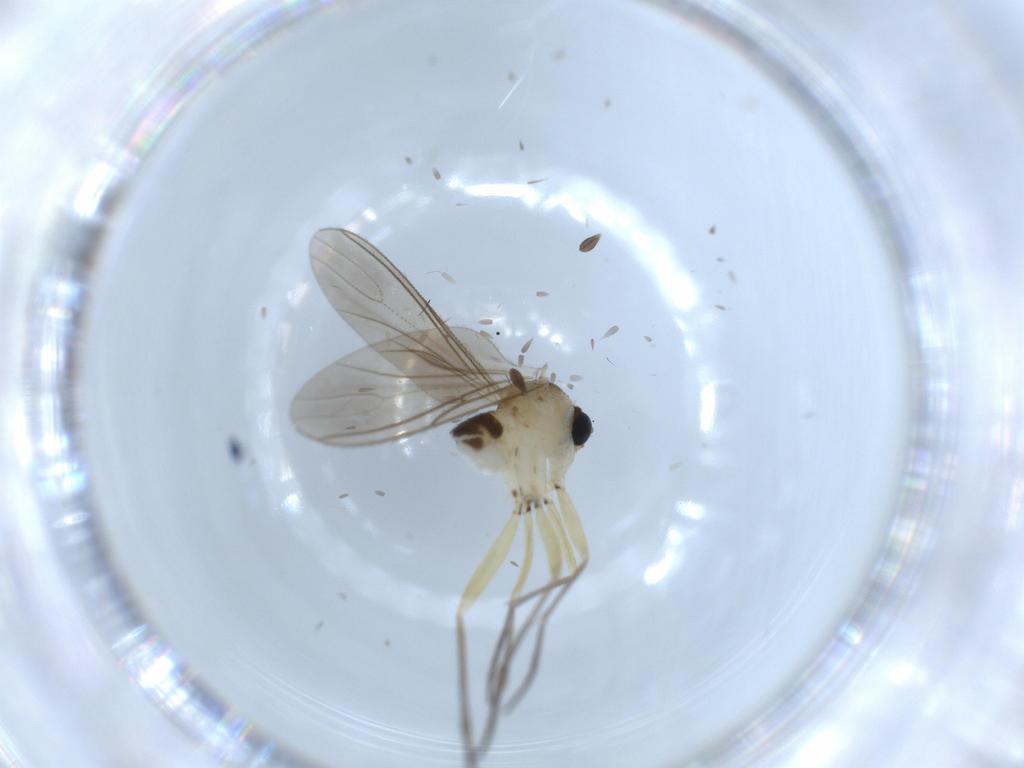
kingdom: Animalia
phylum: Arthropoda
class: Insecta
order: Diptera
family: Sciaridae
